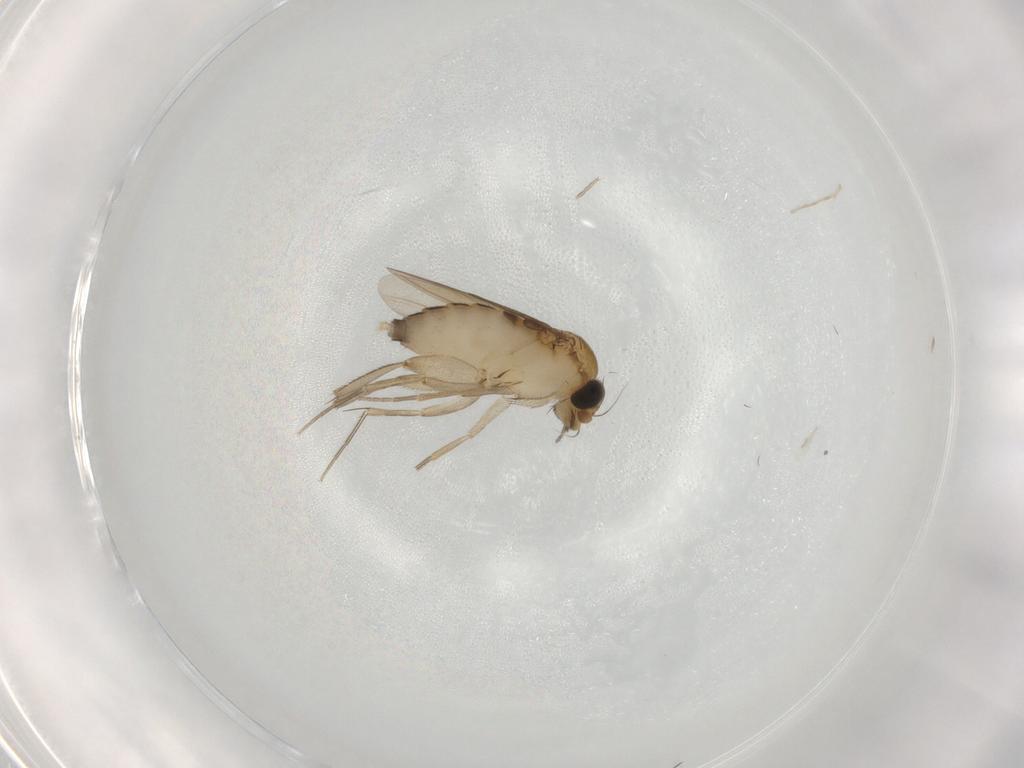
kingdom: Animalia
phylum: Arthropoda
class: Insecta
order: Diptera
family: Phoridae
